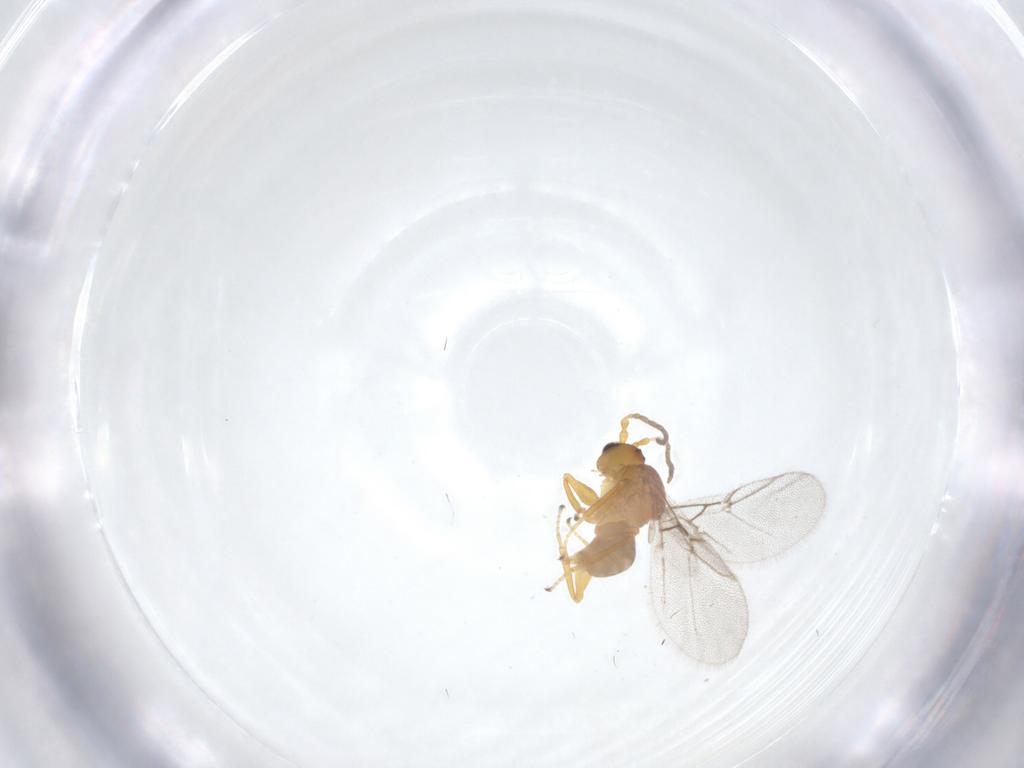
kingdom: Animalia
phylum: Arthropoda
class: Insecta
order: Hymenoptera
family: Cynipidae
